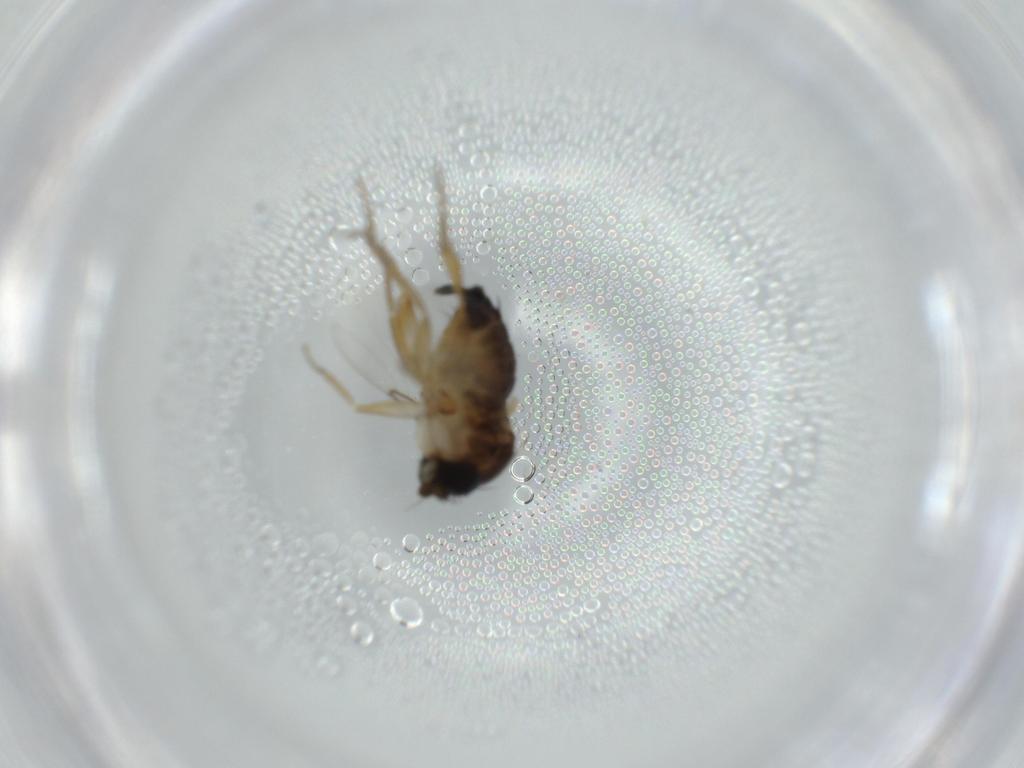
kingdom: Animalia
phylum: Arthropoda
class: Insecta
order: Diptera
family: Phoridae
